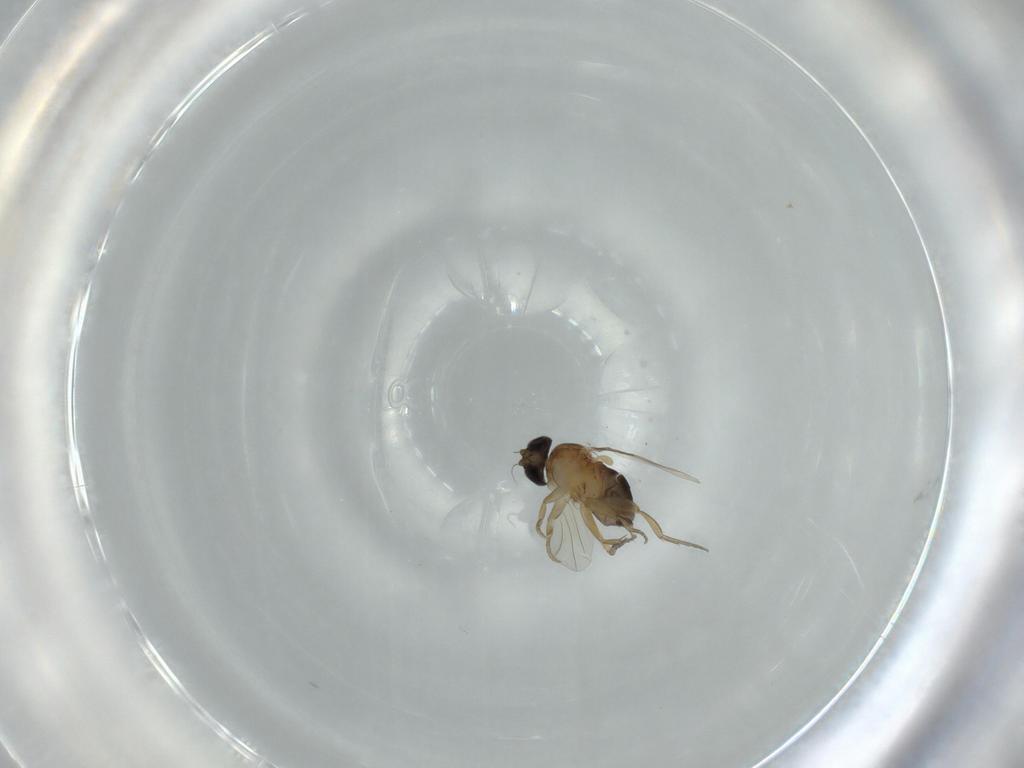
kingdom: Animalia
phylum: Arthropoda
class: Insecta
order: Diptera
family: Phoridae
